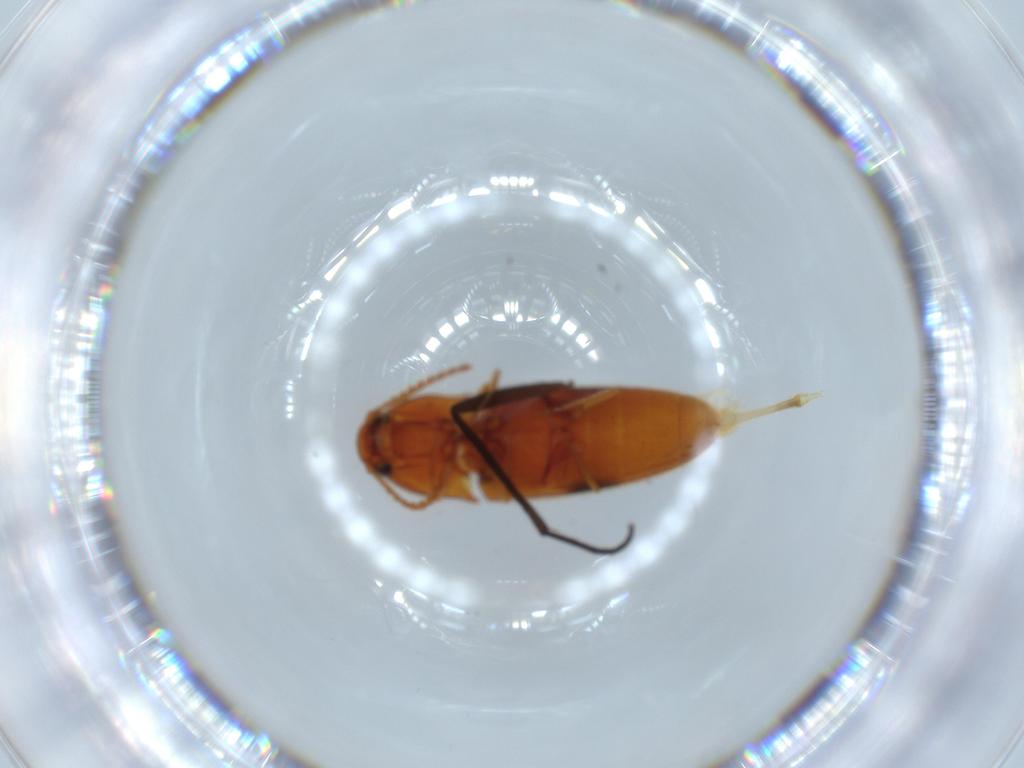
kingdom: Animalia
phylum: Arthropoda
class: Insecta
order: Coleoptera
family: Elateridae
